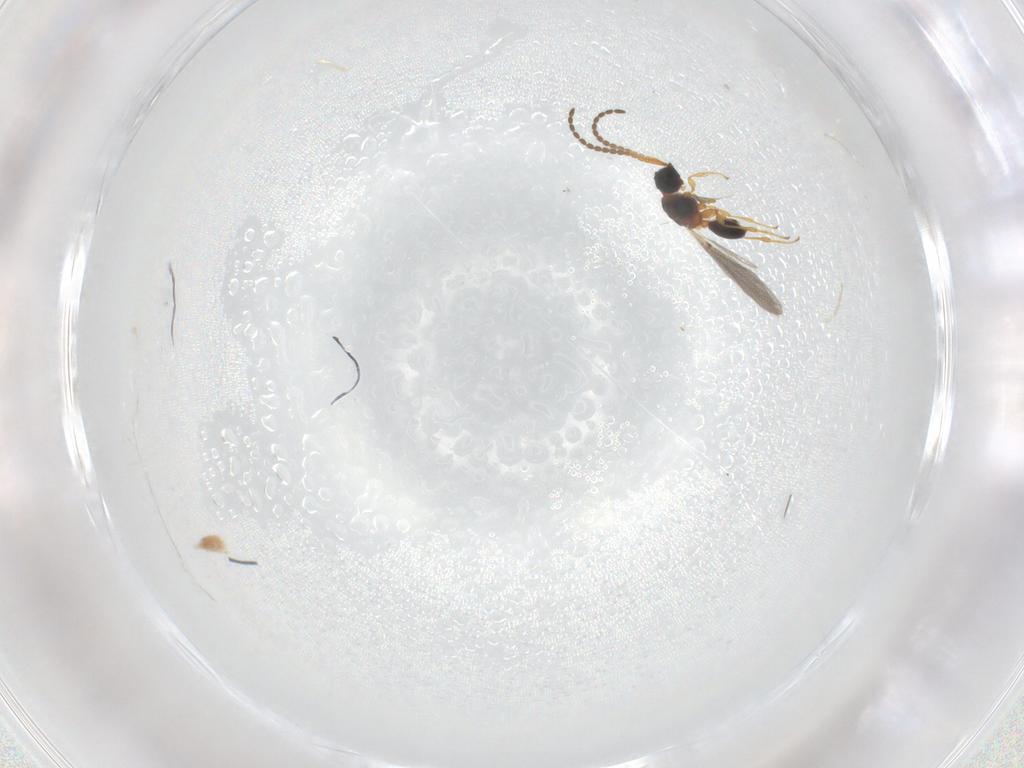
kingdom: Animalia
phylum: Arthropoda
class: Insecta
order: Hymenoptera
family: Diapriidae
